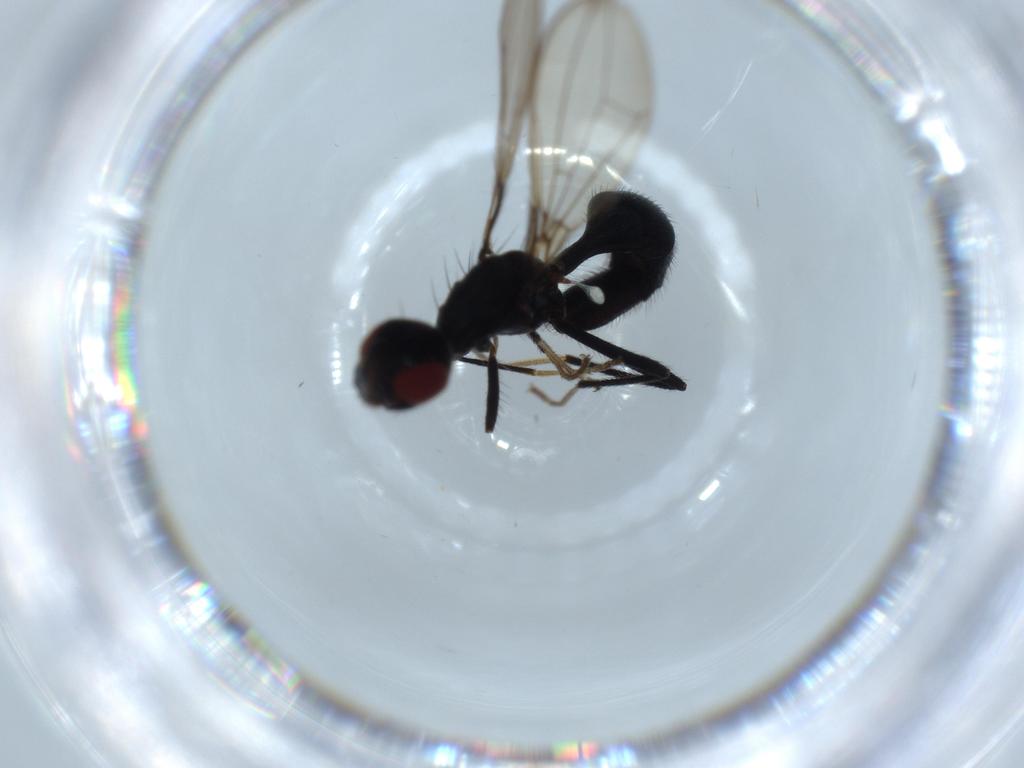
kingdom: Animalia
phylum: Arthropoda
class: Insecta
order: Diptera
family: Richardiidae
